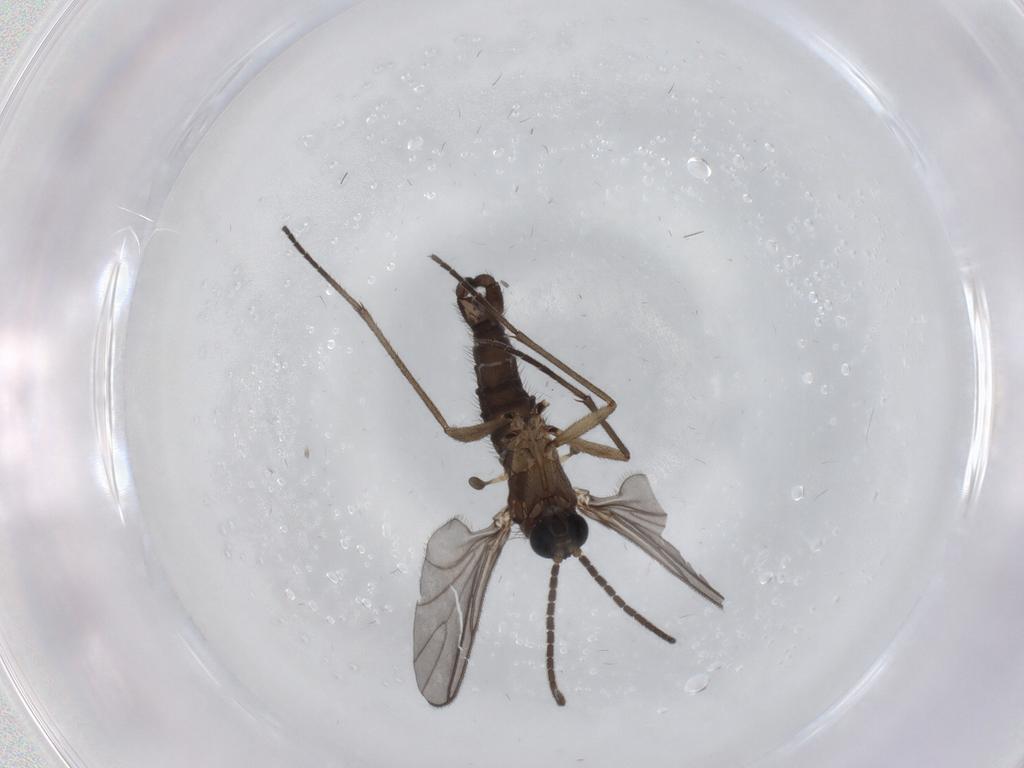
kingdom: Animalia
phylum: Arthropoda
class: Insecta
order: Diptera
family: Sciaridae
